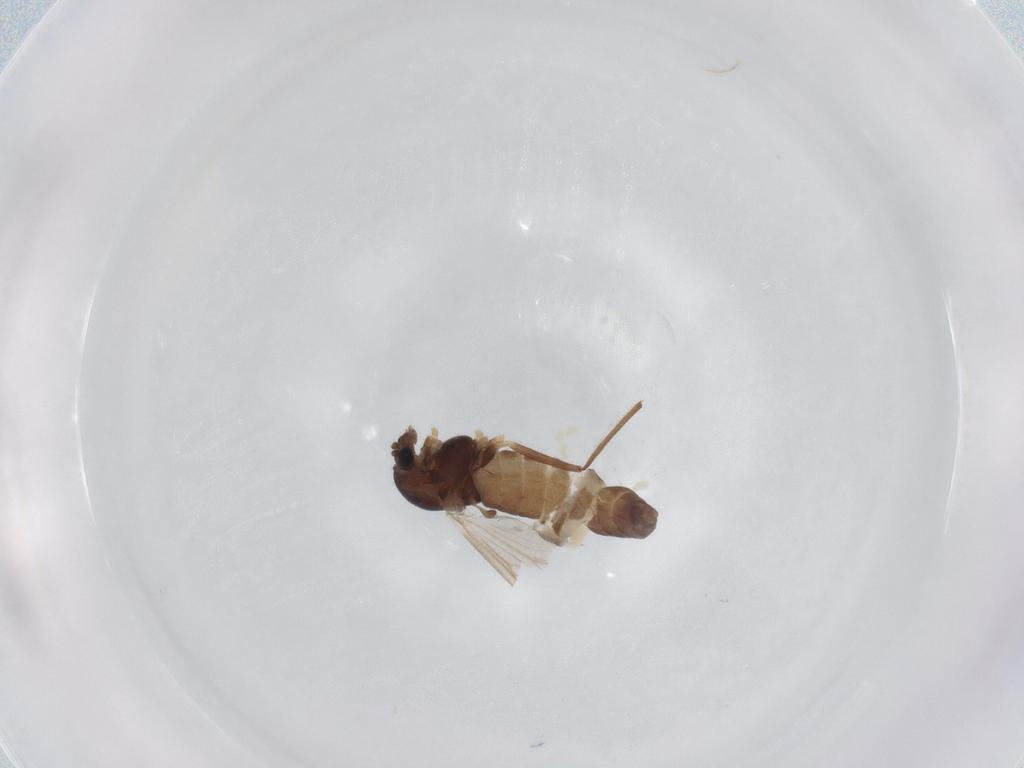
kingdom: Animalia
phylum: Arthropoda
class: Insecta
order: Diptera
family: Chironomidae
